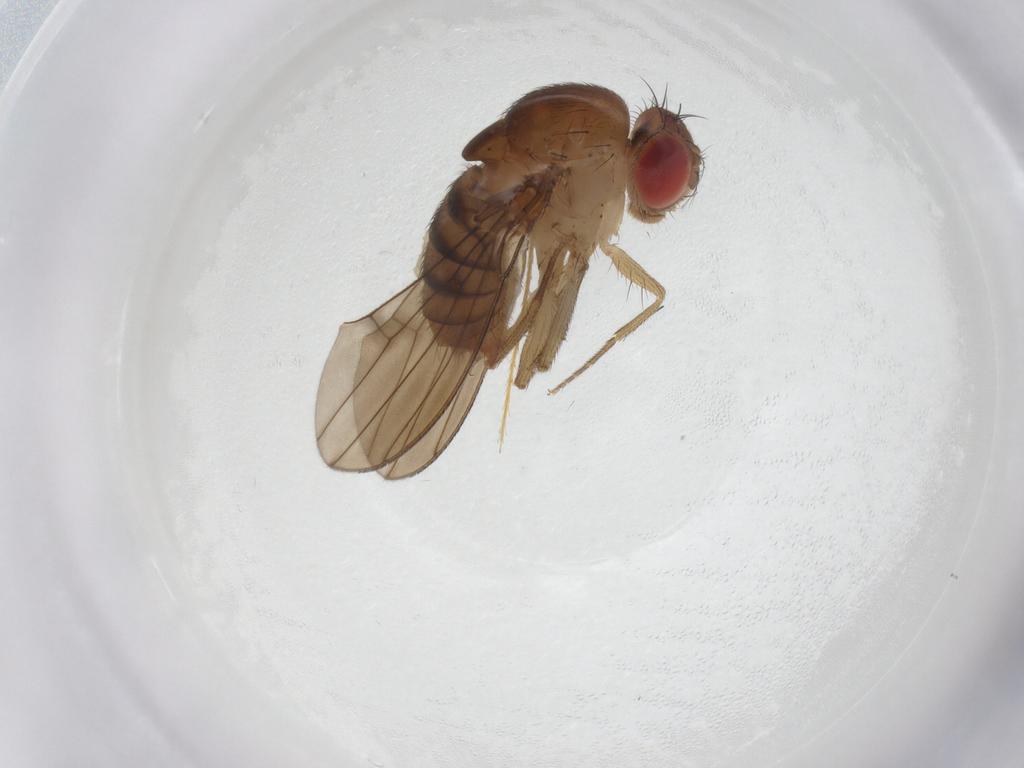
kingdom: Animalia
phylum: Arthropoda
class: Insecta
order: Diptera
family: Drosophilidae
